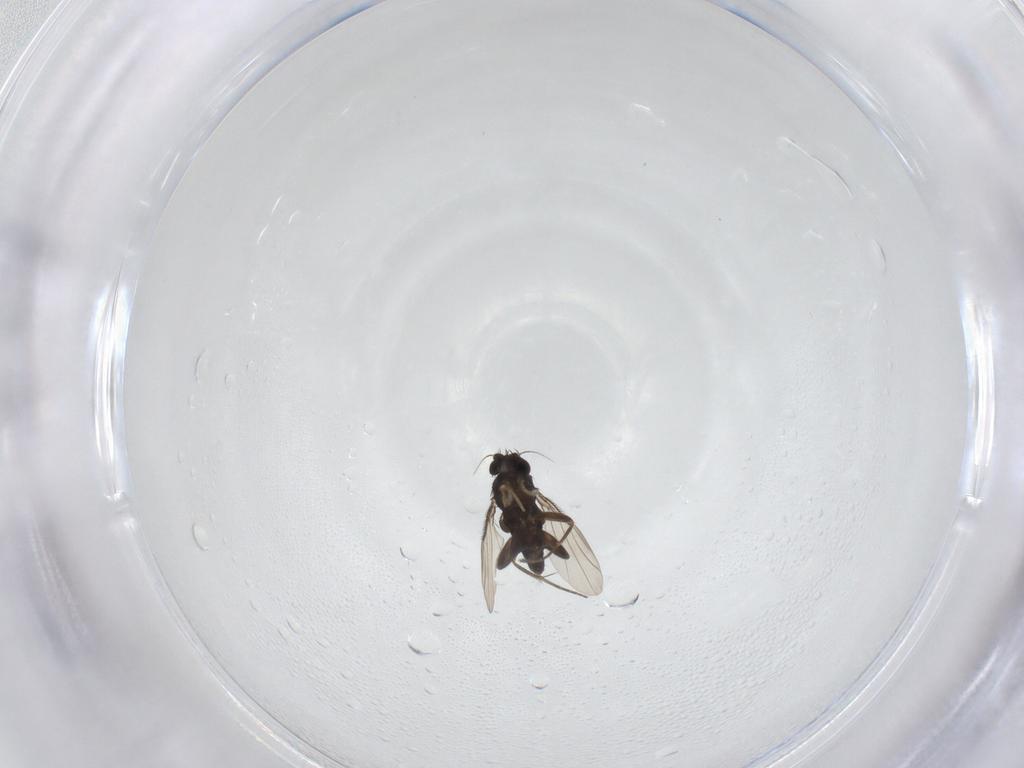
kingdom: Animalia
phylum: Arthropoda
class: Insecta
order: Diptera
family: Phoridae
